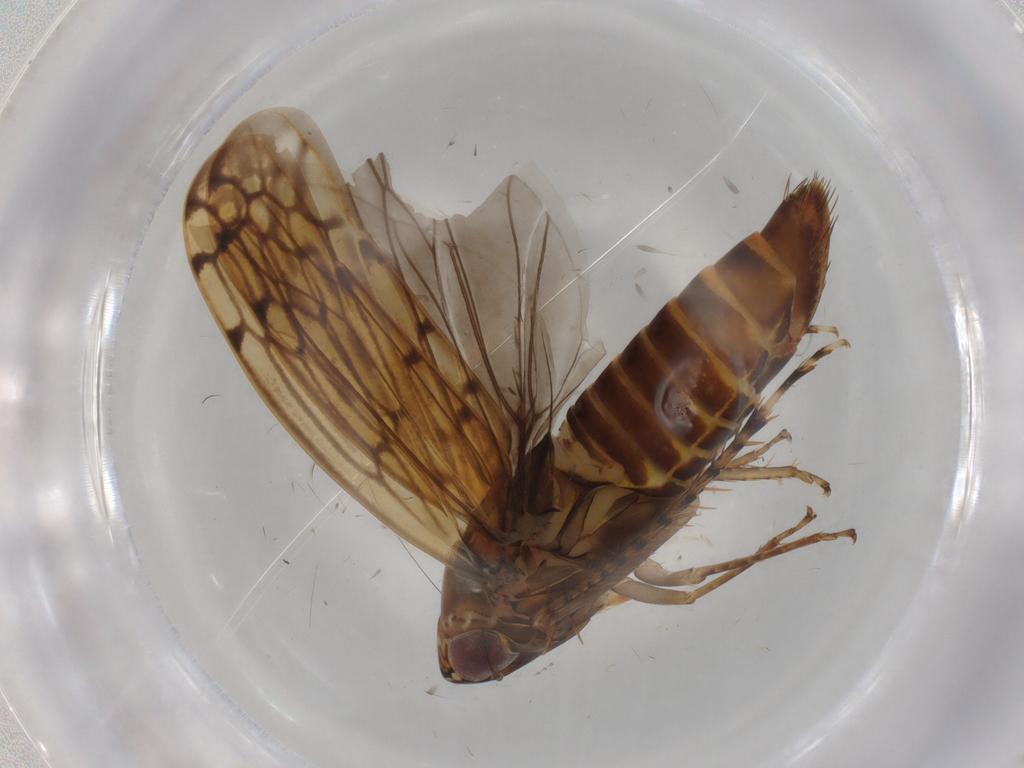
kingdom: Animalia
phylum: Arthropoda
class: Insecta
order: Hemiptera
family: Cicadellidae
